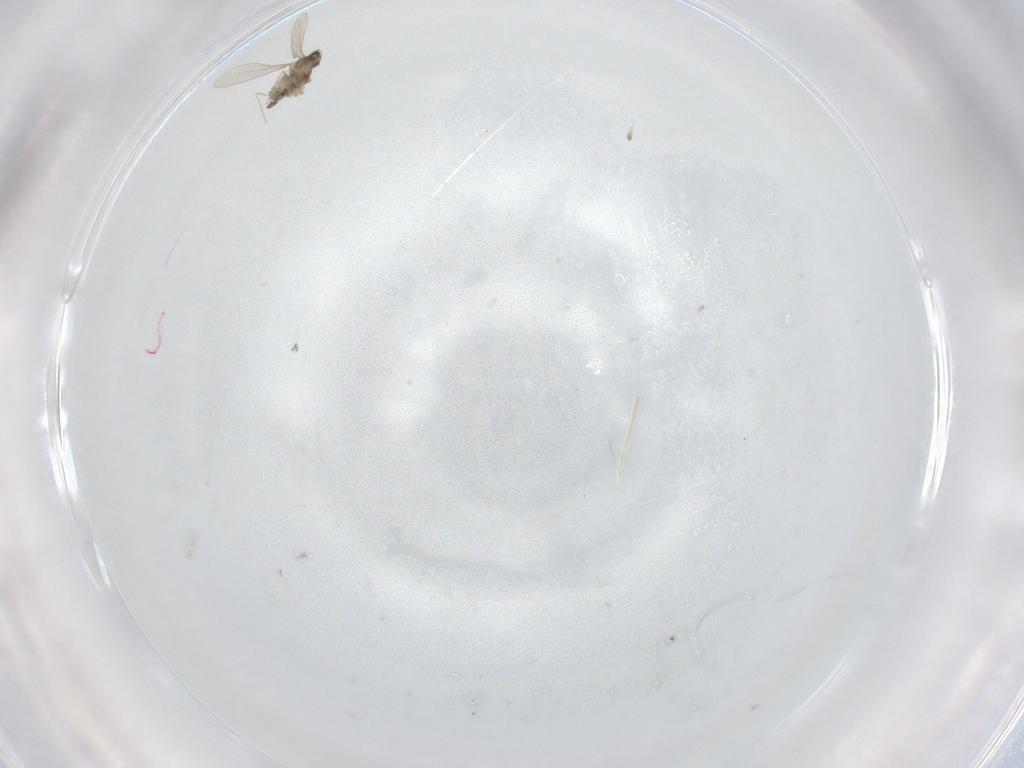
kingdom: Animalia
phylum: Arthropoda
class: Insecta
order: Diptera
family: Cecidomyiidae
